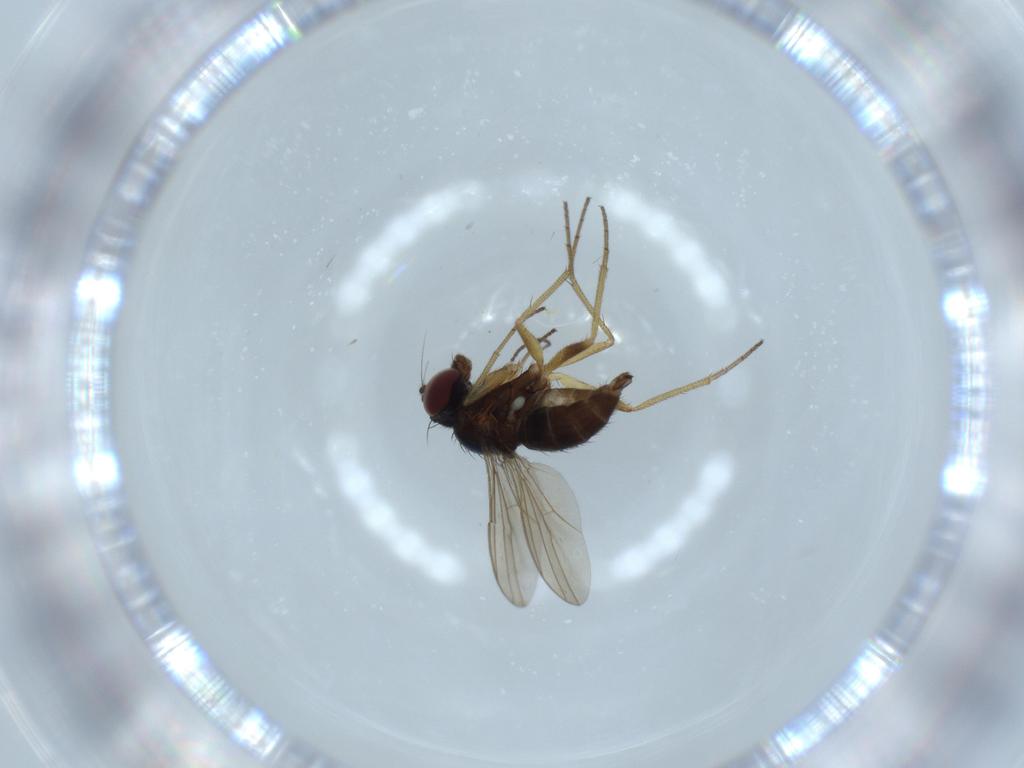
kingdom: Animalia
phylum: Arthropoda
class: Insecta
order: Diptera
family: Dolichopodidae
